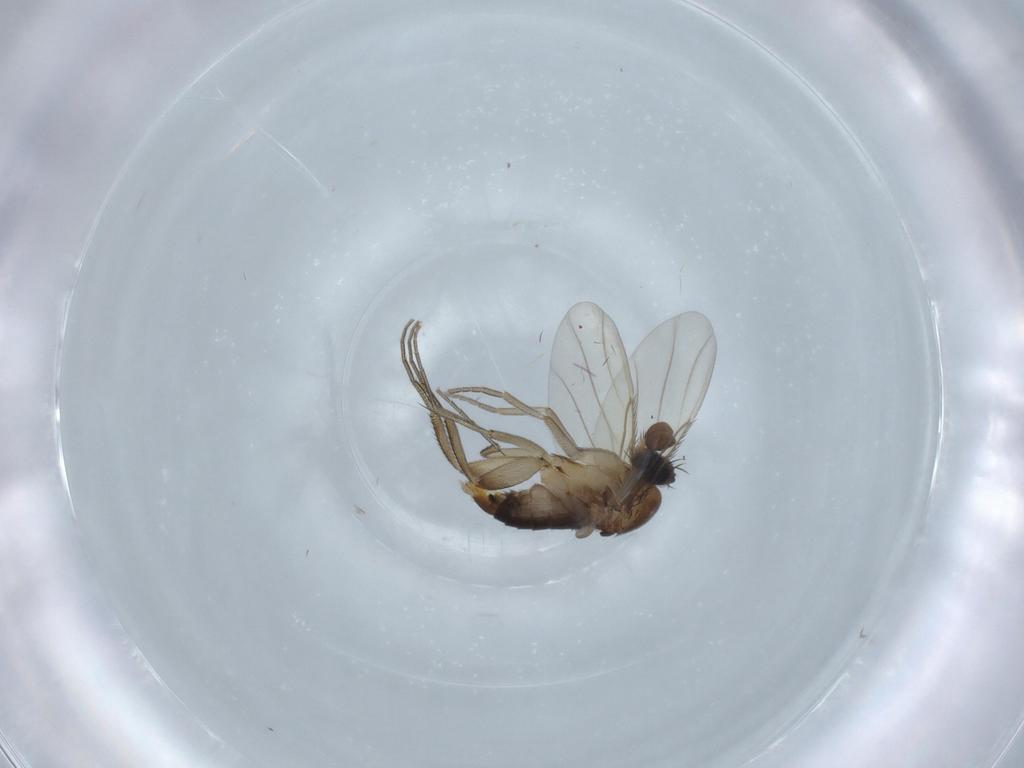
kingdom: Animalia
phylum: Arthropoda
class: Insecta
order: Diptera
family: Phoridae
